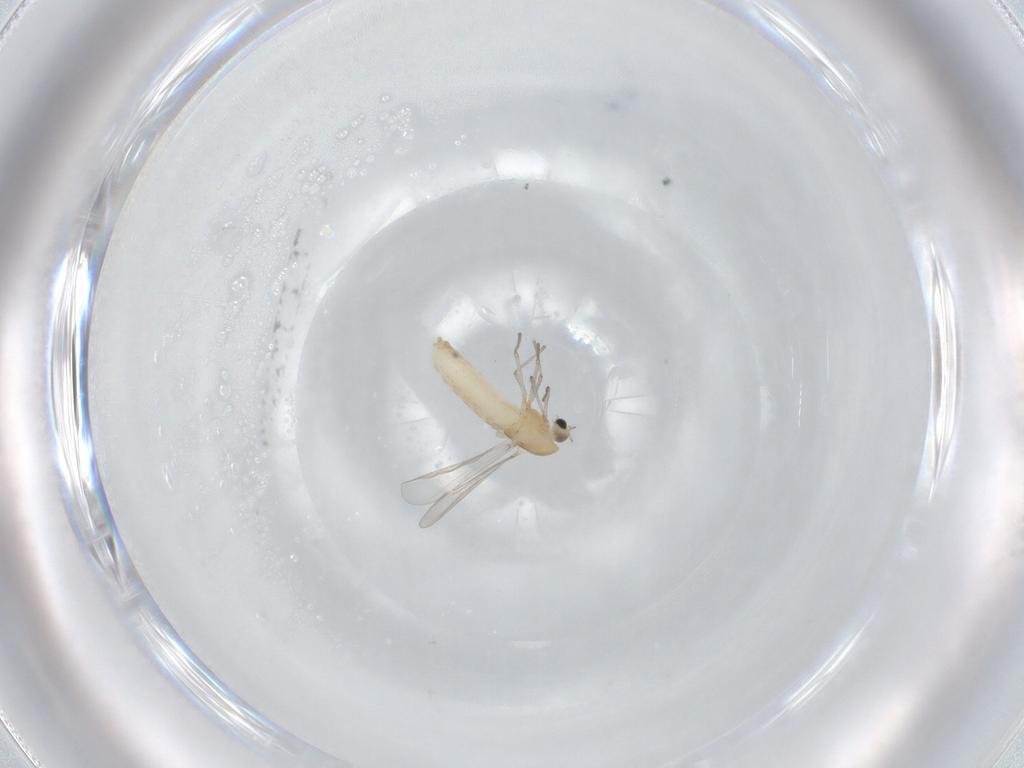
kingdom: Animalia
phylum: Arthropoda
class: Insecta
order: Diptera
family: Chironomidae
